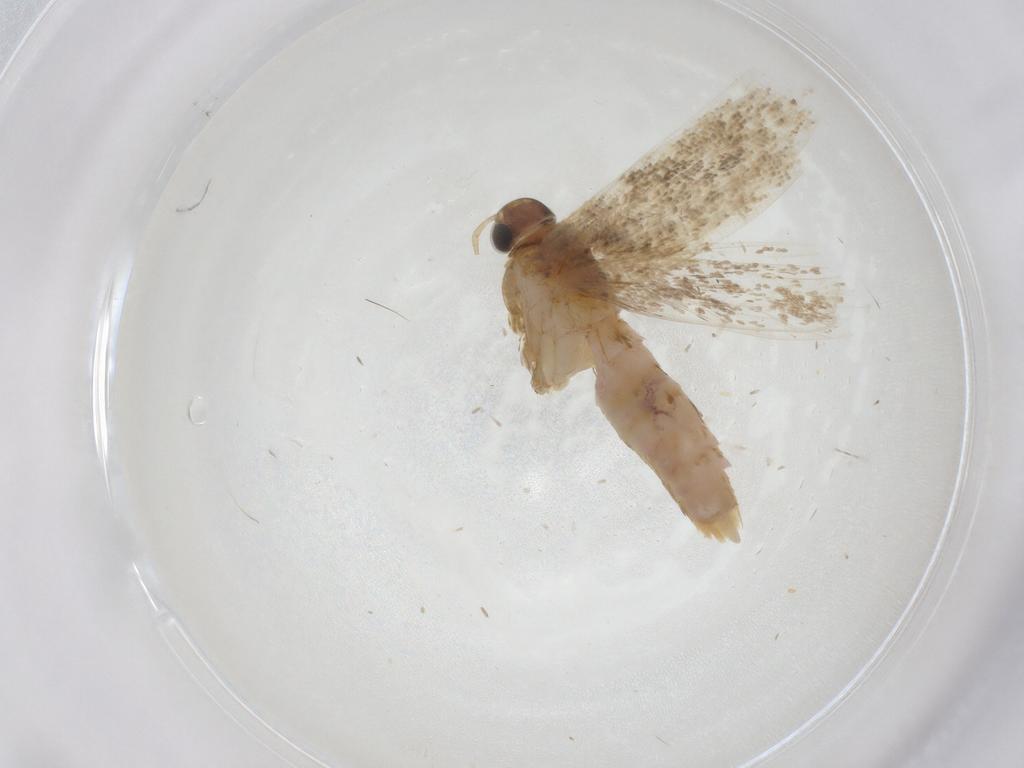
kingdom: Animalia
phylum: Arthropoda
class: Insecta
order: Lepidoptera
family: Gelechiidae
